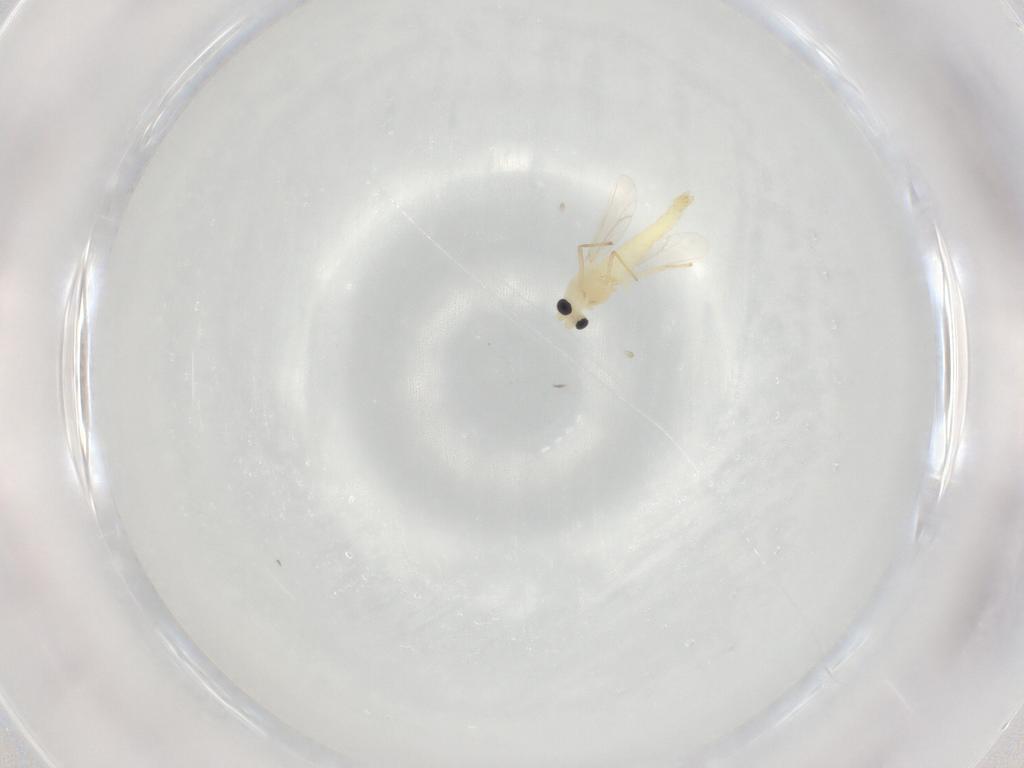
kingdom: Animalia
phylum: Arthropoda
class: Insecta
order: Diptera
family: Chironomidae
